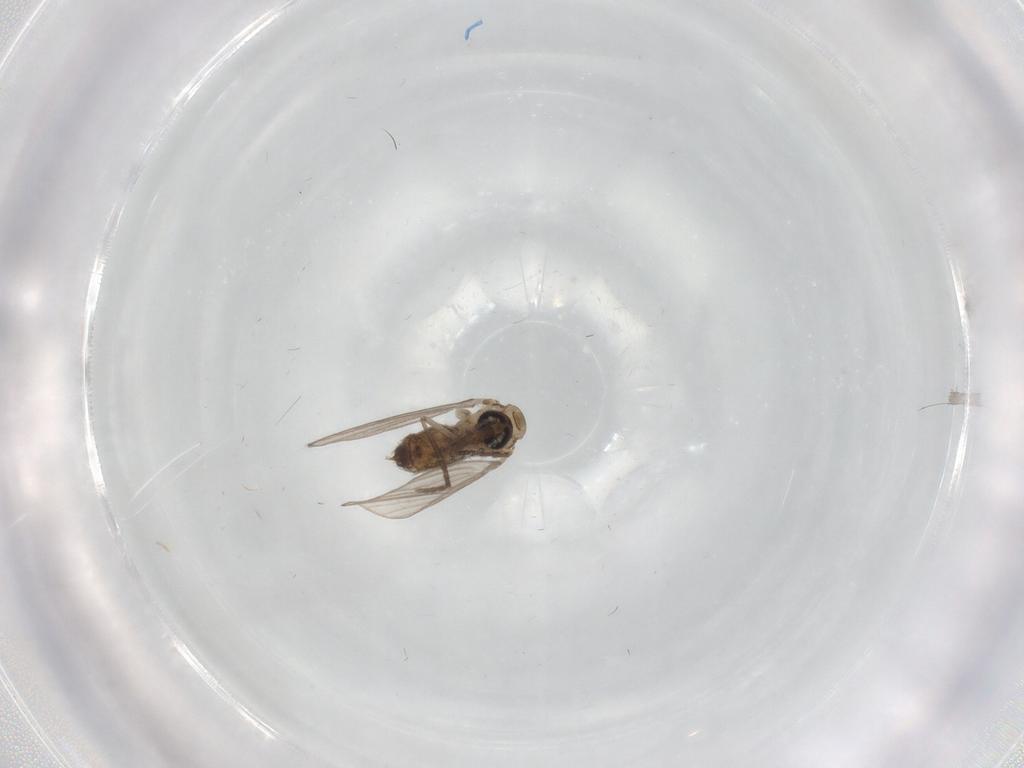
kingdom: Animalia
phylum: Arthropoda
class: Insecta
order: Diptera
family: Psychodidae
